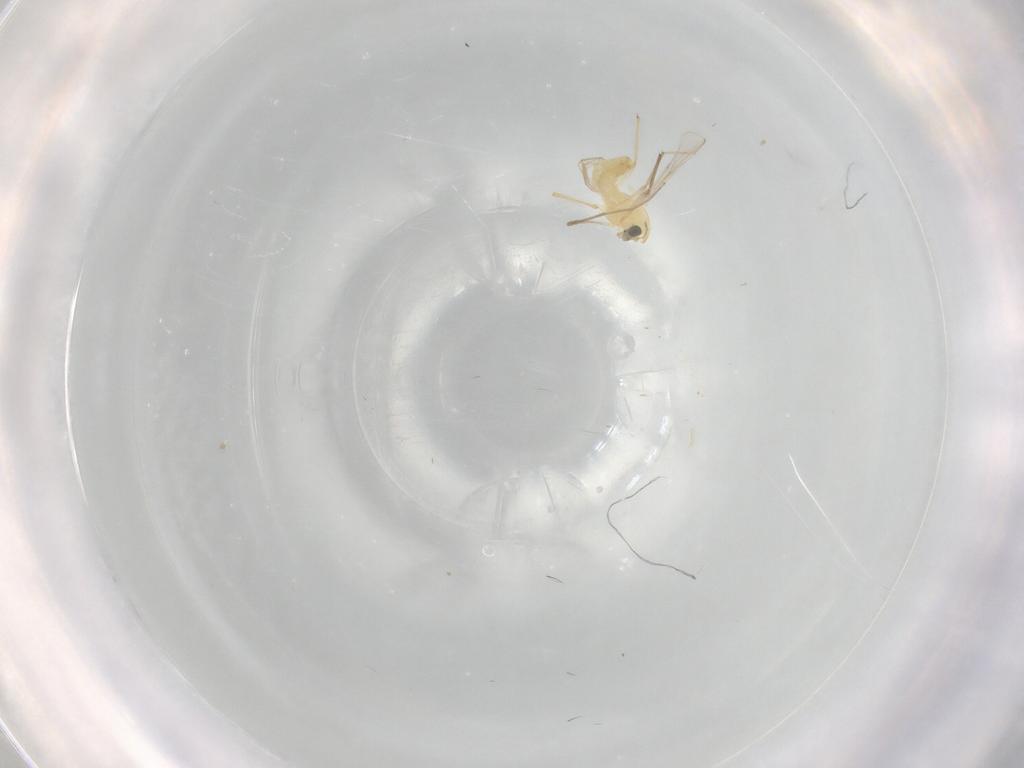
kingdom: Animalia
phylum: Arthropoda
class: Insecta
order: Diptera
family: Chironomidae
